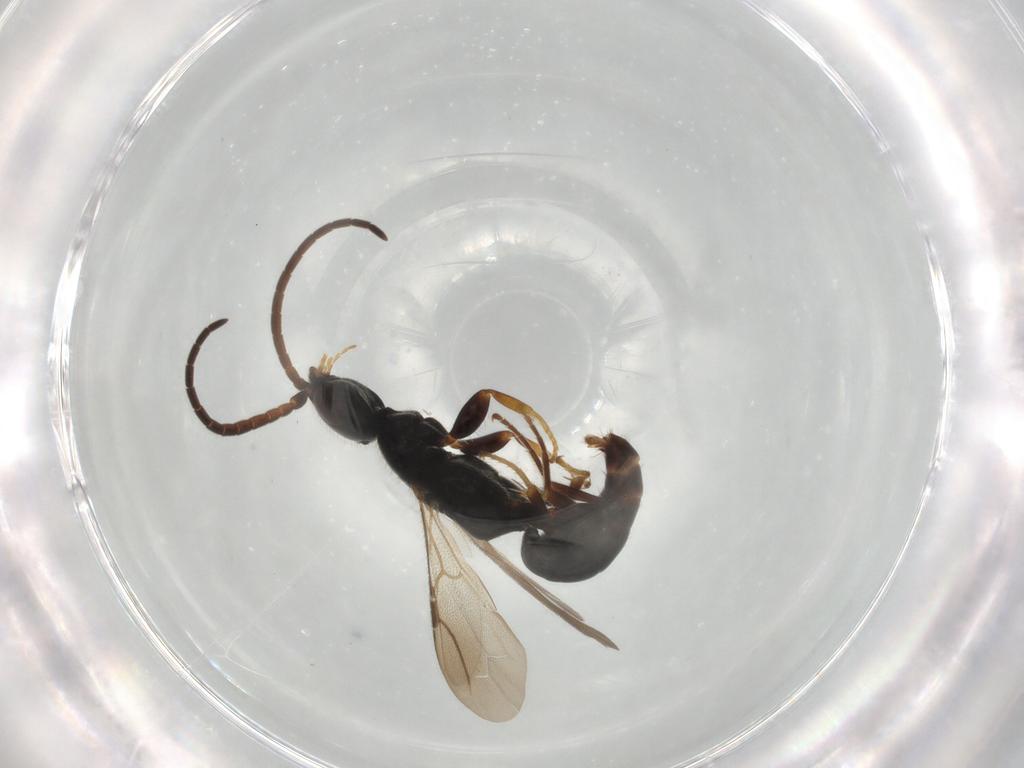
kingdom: Animalia
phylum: Arthropoda
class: Insecta
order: Hymenoptera
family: Bethylidae
